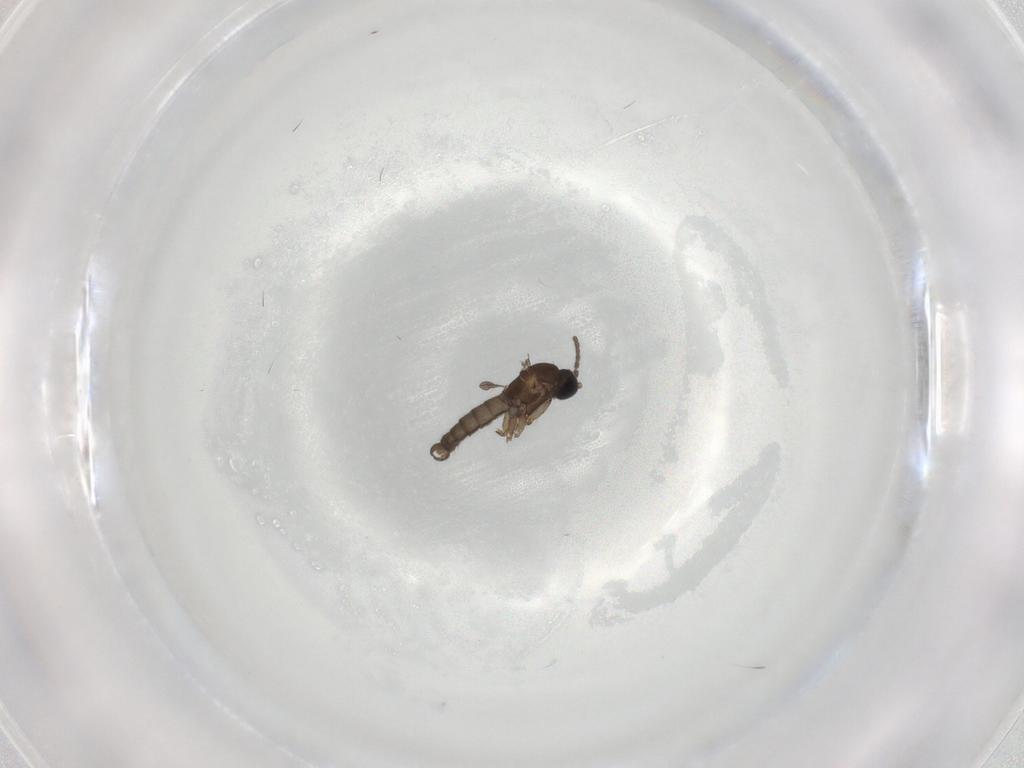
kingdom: Animalia
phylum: Arthropoda
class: Insecta
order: Diptera
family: Sciaridae
